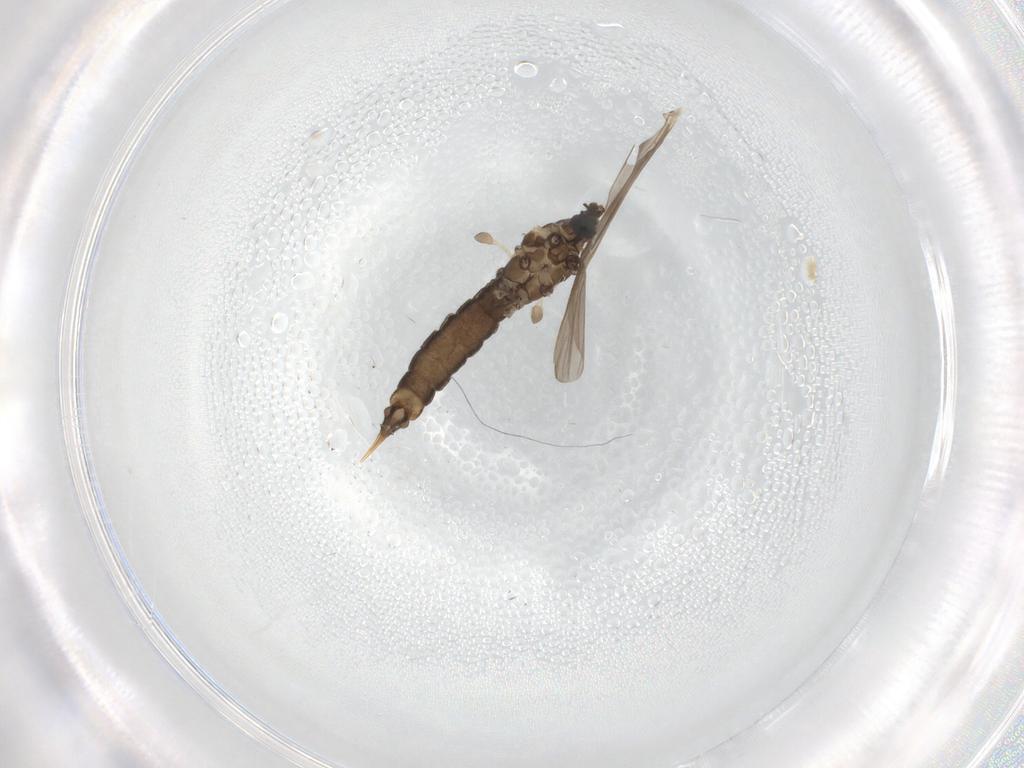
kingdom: Animalia
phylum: Arthropoda
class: Insecta
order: Diptera
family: Limoniidae
